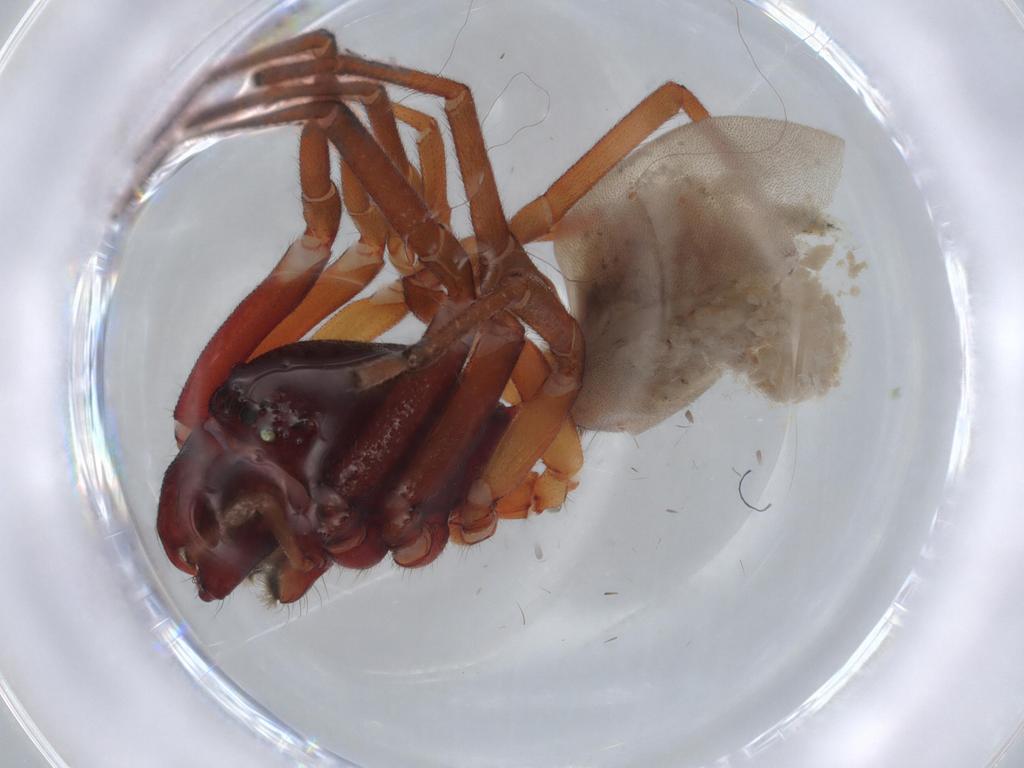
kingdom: Animalia
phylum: Arthropoda
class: Arachnida
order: Araneae
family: Trachelidae
